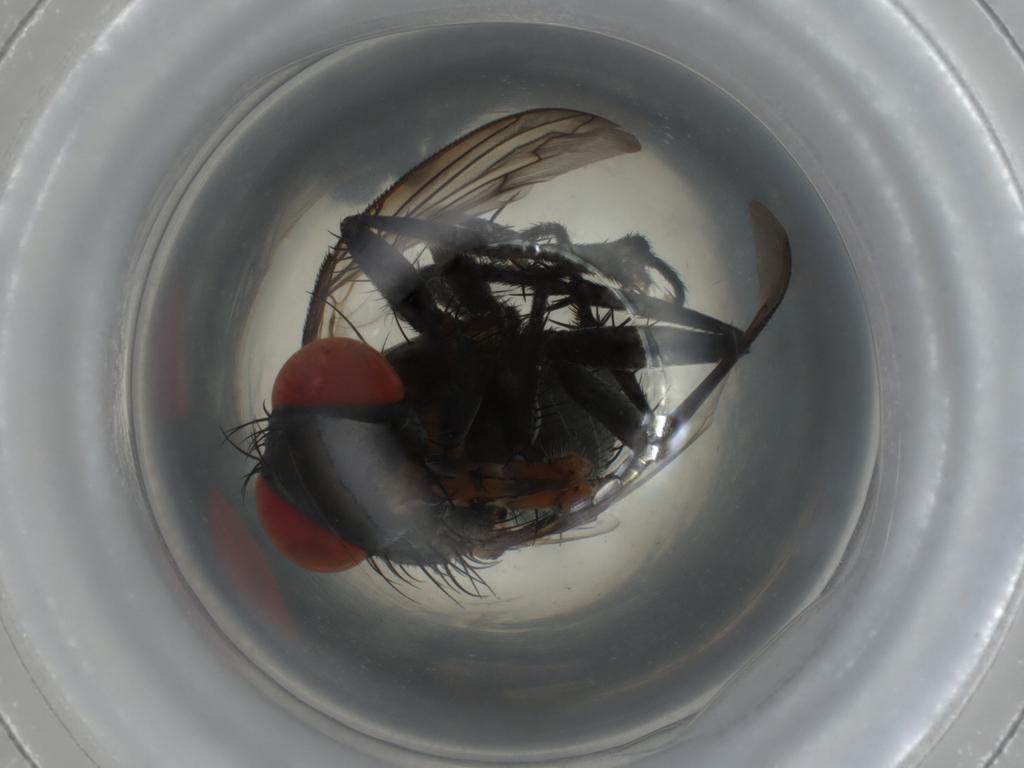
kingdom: Animalia
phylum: Arthropoda
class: Insecta
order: Diptera
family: Sarcophagidae
